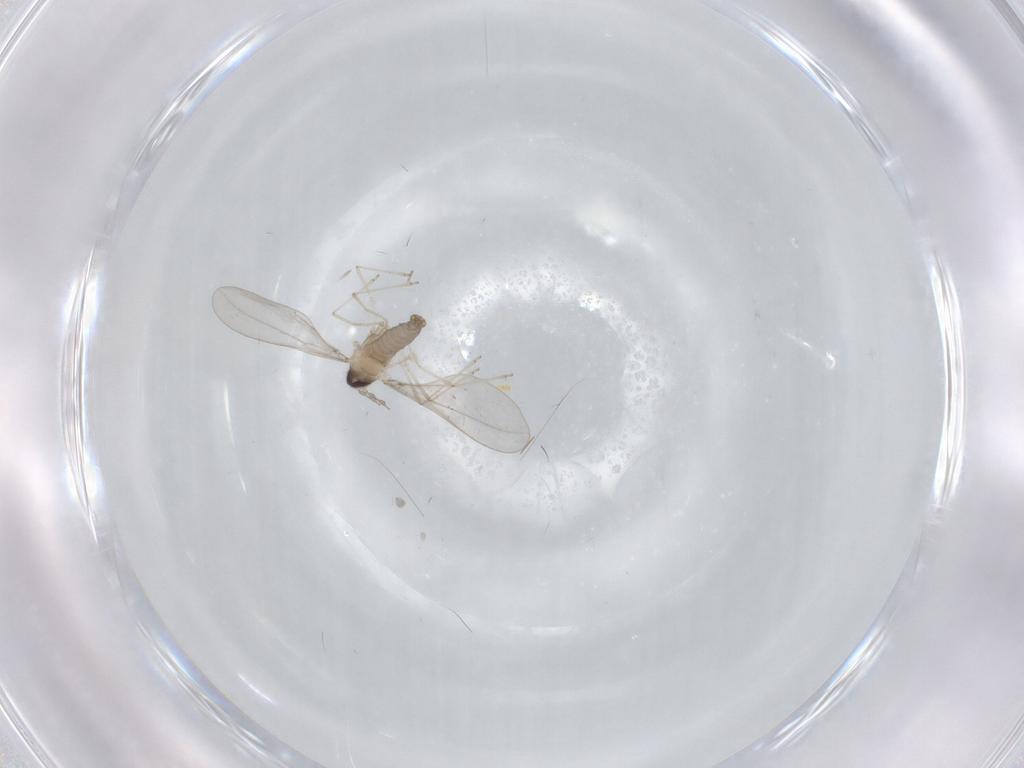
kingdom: Animalia
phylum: Arthropoda
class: Insecta
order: Diptera
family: Cecidomyiidae
